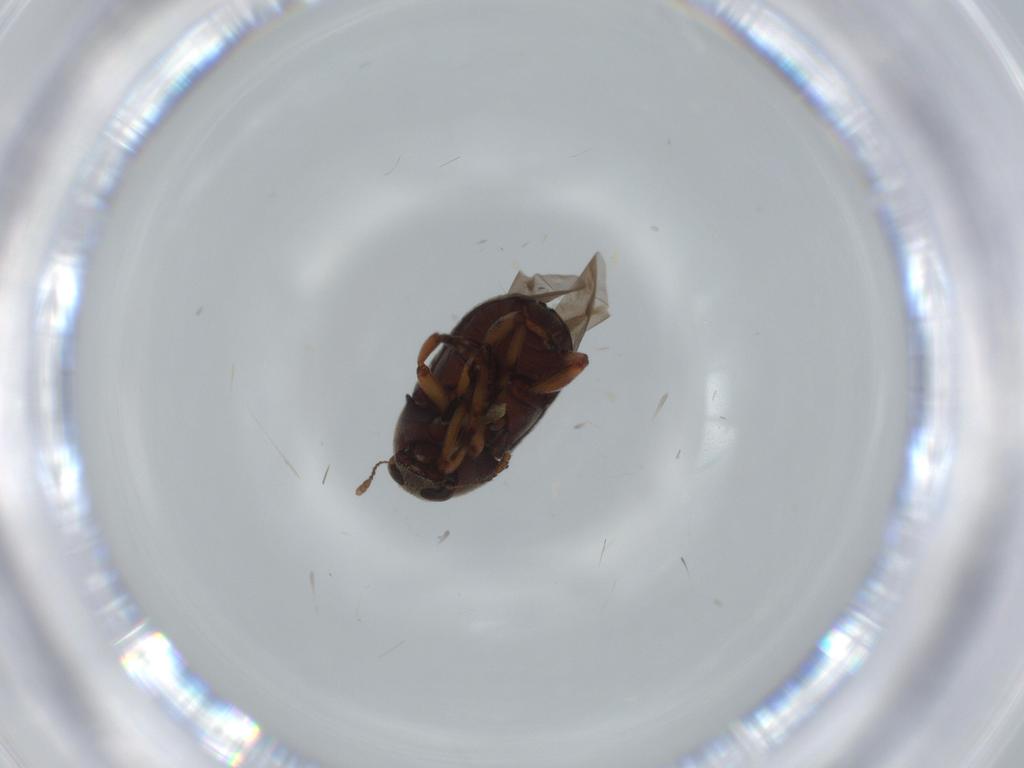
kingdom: Animalia
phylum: Arthropoda
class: Insecta
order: Coleoptera
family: Anthribidae
